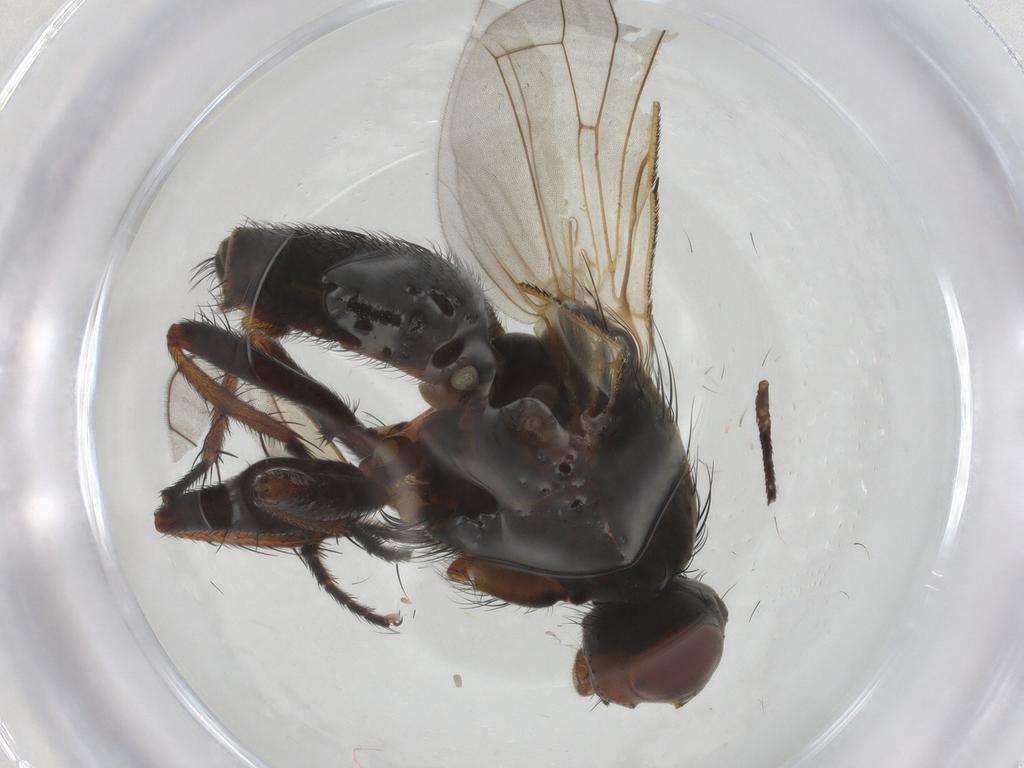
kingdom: Animalia
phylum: Arthropoda
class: Insecta
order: Diptera
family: Anthomyiidae
